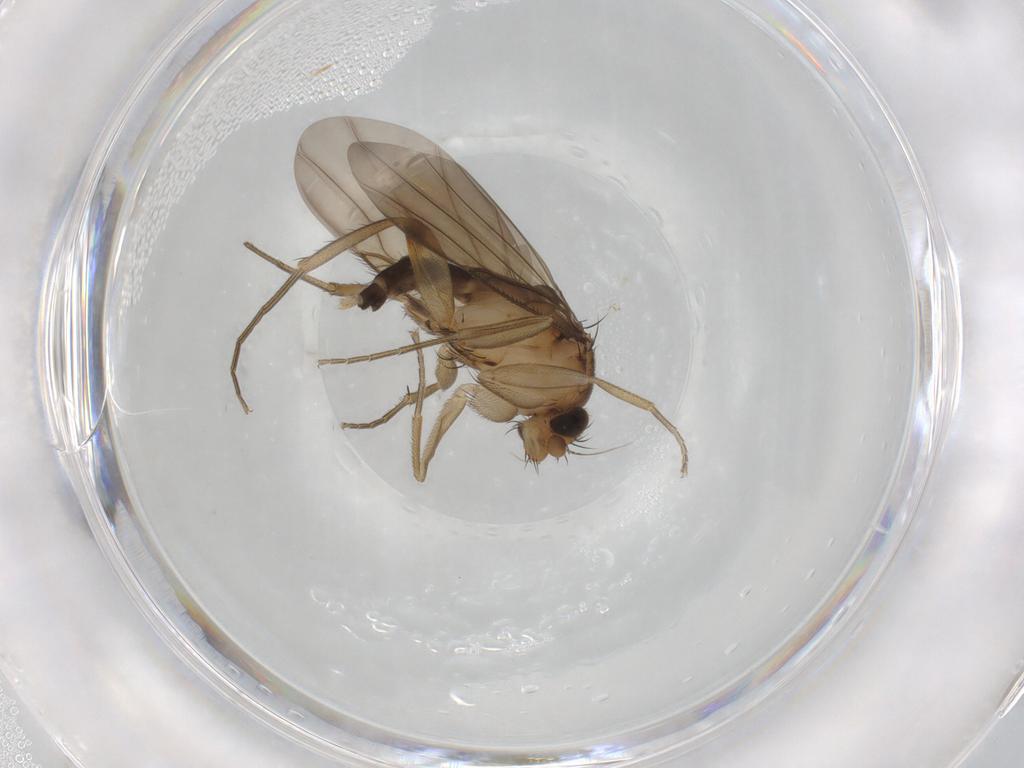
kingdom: Animalia
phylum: Arthropoda
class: Insecta
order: Diptera
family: Phoridae
